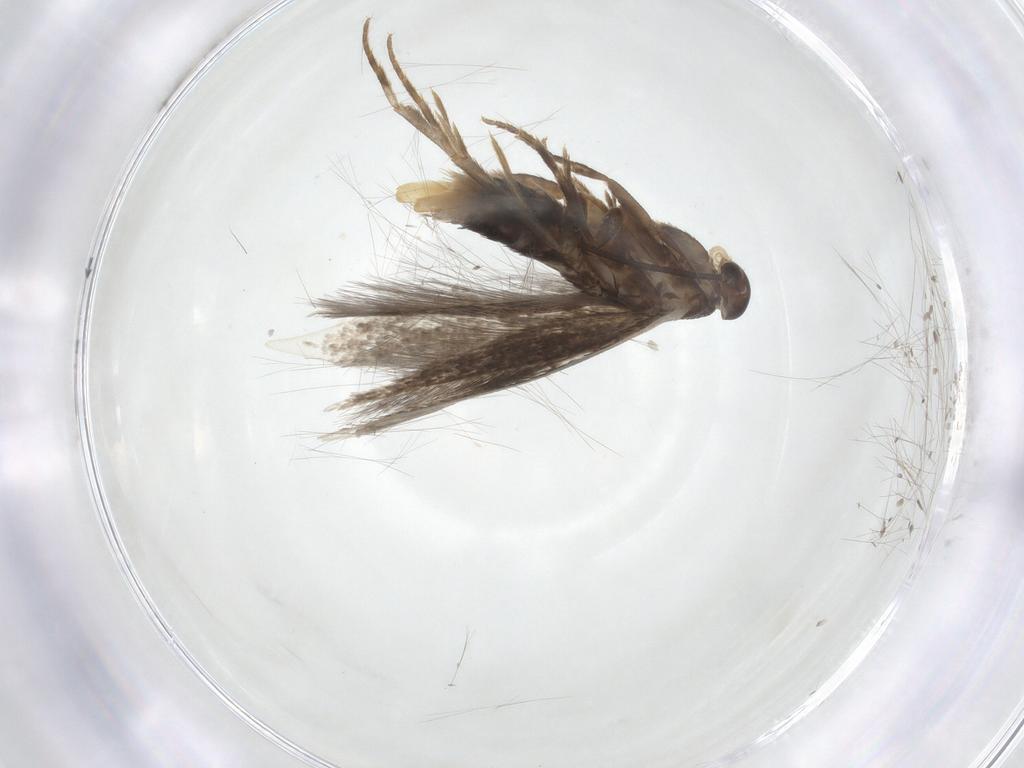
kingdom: Animalia
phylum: Arthropoda
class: Insecta
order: Lepidoptera
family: Elachistidae
